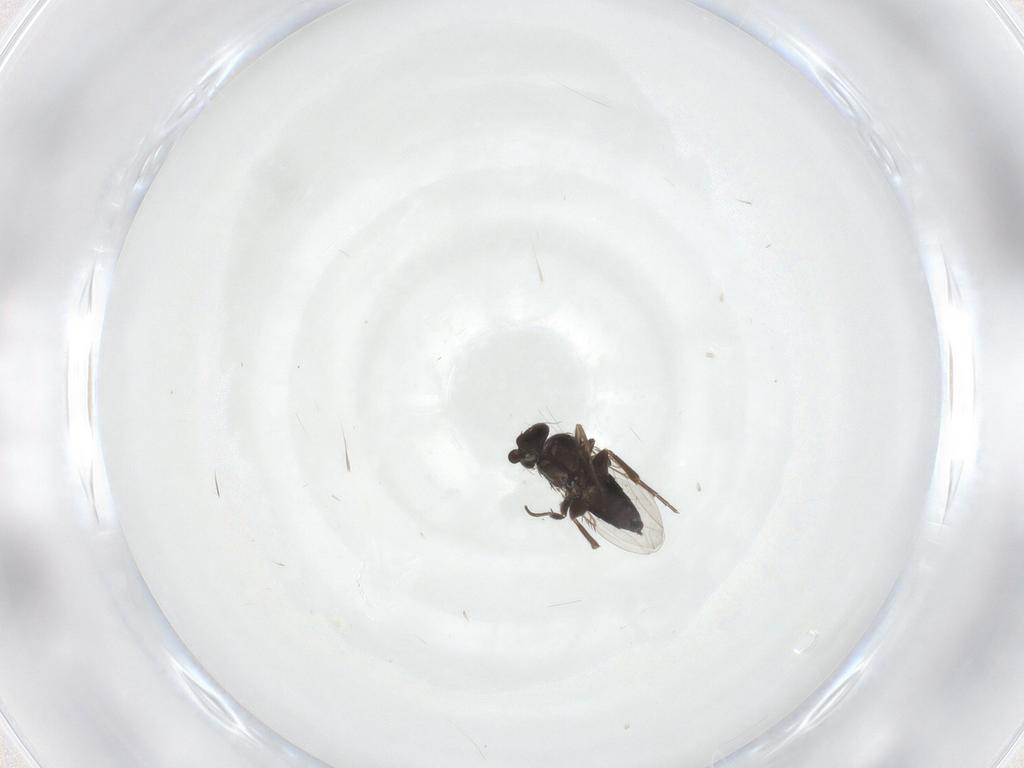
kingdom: Animalia
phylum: Arthropoda
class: Insecta
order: Diptera
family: Phoridae
